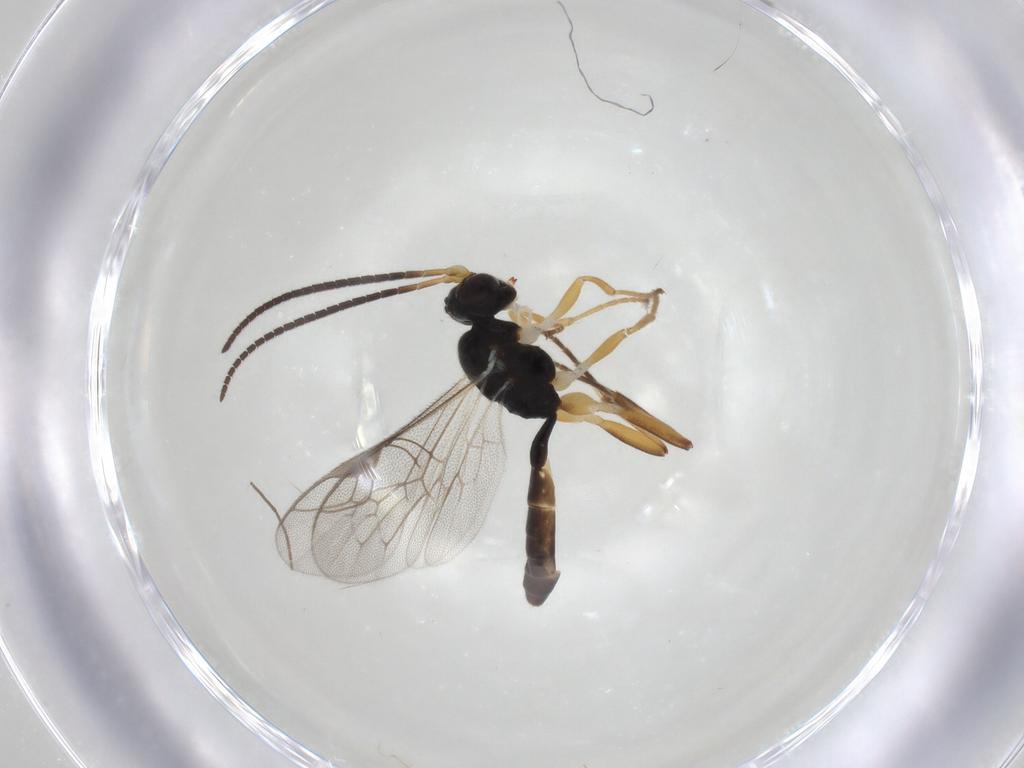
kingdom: Animalia
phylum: Arthropoda
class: Insecta
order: Hymenoptera
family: Ichneumonidae
